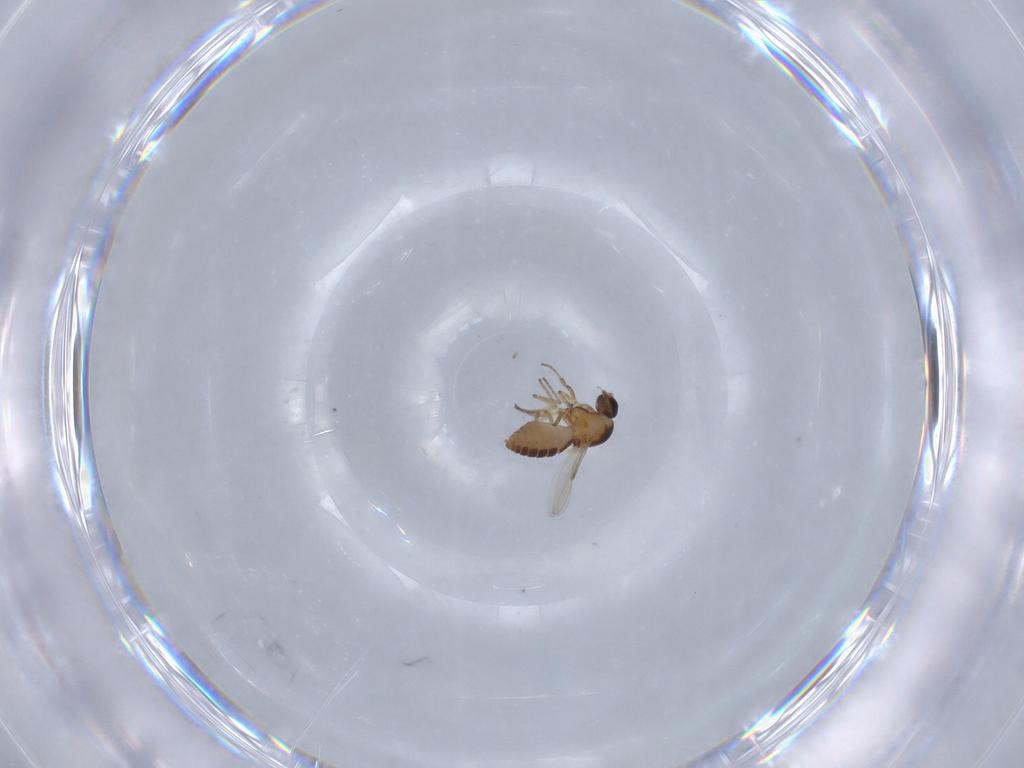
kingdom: Animalia
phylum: Arthropoda
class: Insecta
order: Diptera
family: Ceratopogonidae
